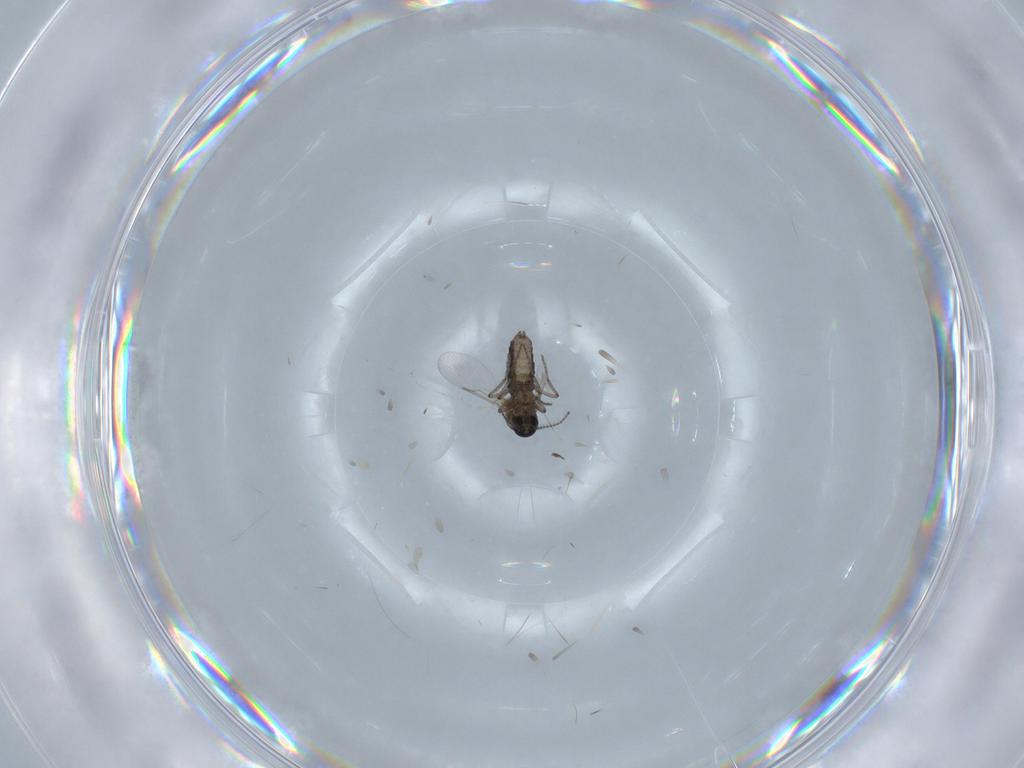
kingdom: Animalia
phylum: Arthropoda
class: Insecta
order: Diptera
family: Ceratopogonidae
